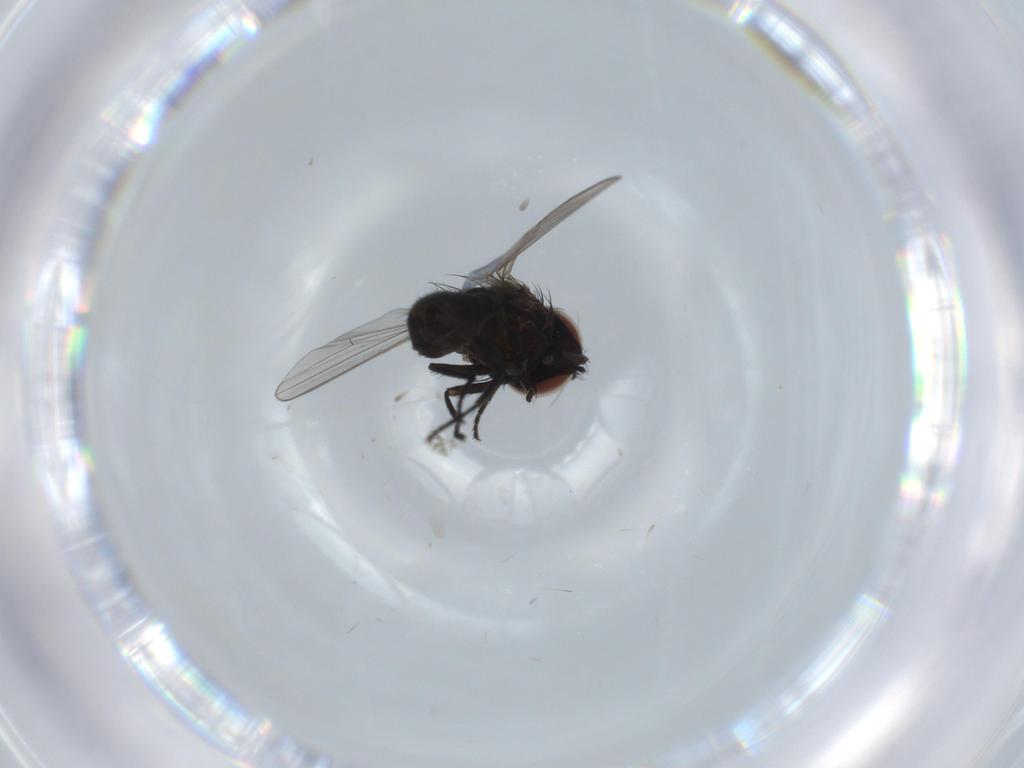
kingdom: Animalia
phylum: Arthropoda
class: Insecta
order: Diptera
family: Milichiidae
